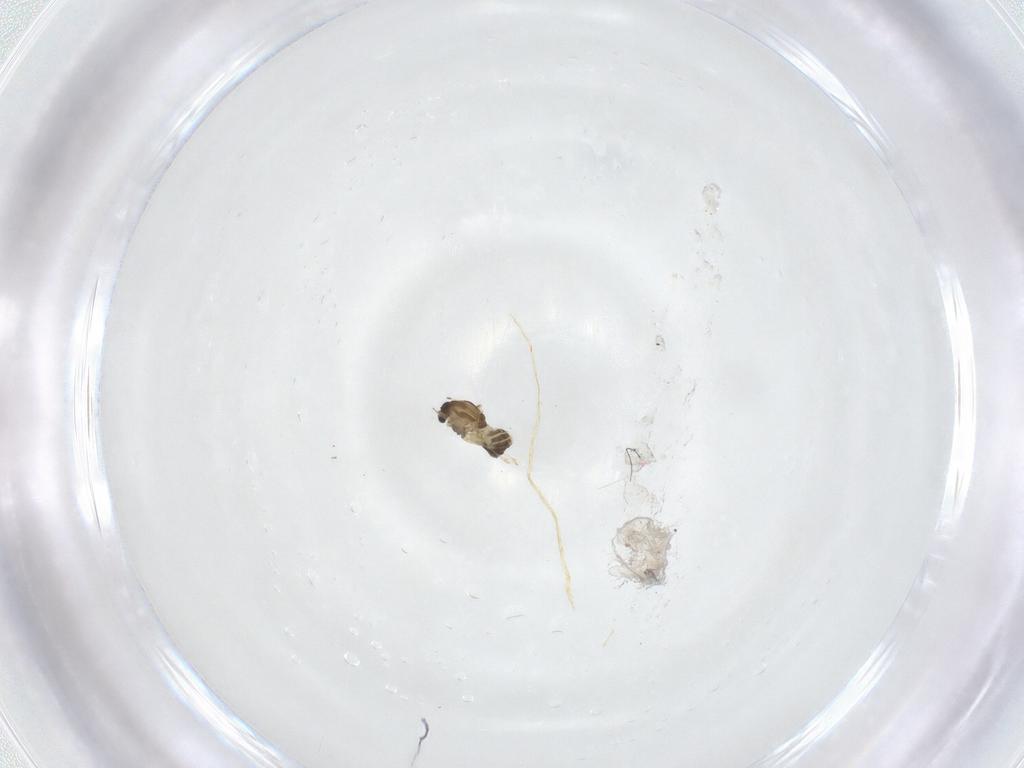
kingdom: Animalia
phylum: Arthropoda
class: Insecta
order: Diptera
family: Chironomidae
